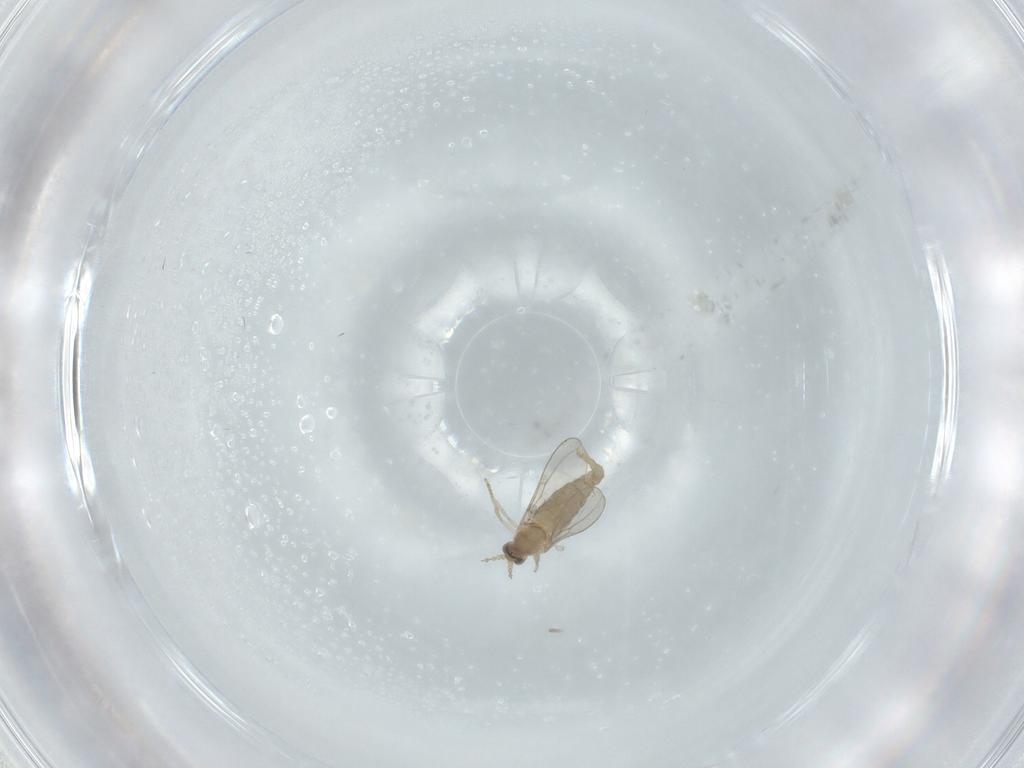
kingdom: Animalia
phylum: Arthropoda
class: Insecta
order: Diptera
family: Cecidomyiidae
